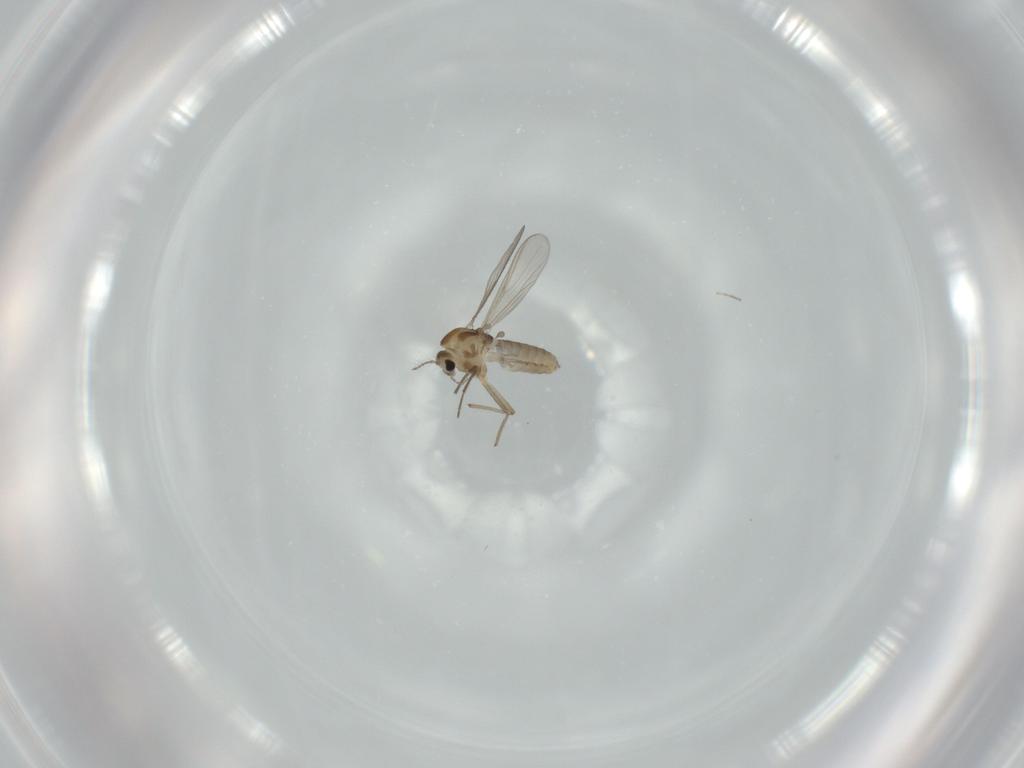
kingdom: Animalia
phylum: Arthropoda
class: Insecta
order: Diptera
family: Chironomidae
